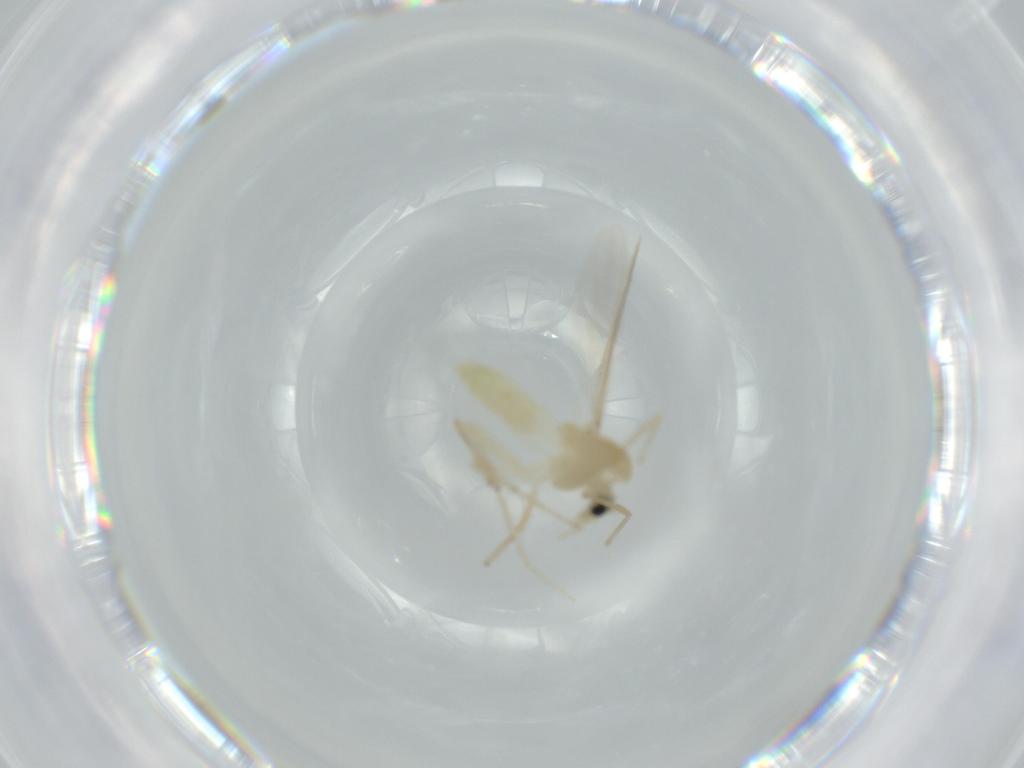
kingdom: Animalia
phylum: Arthropoda
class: Insecta
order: Diptera
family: Chironomidae
